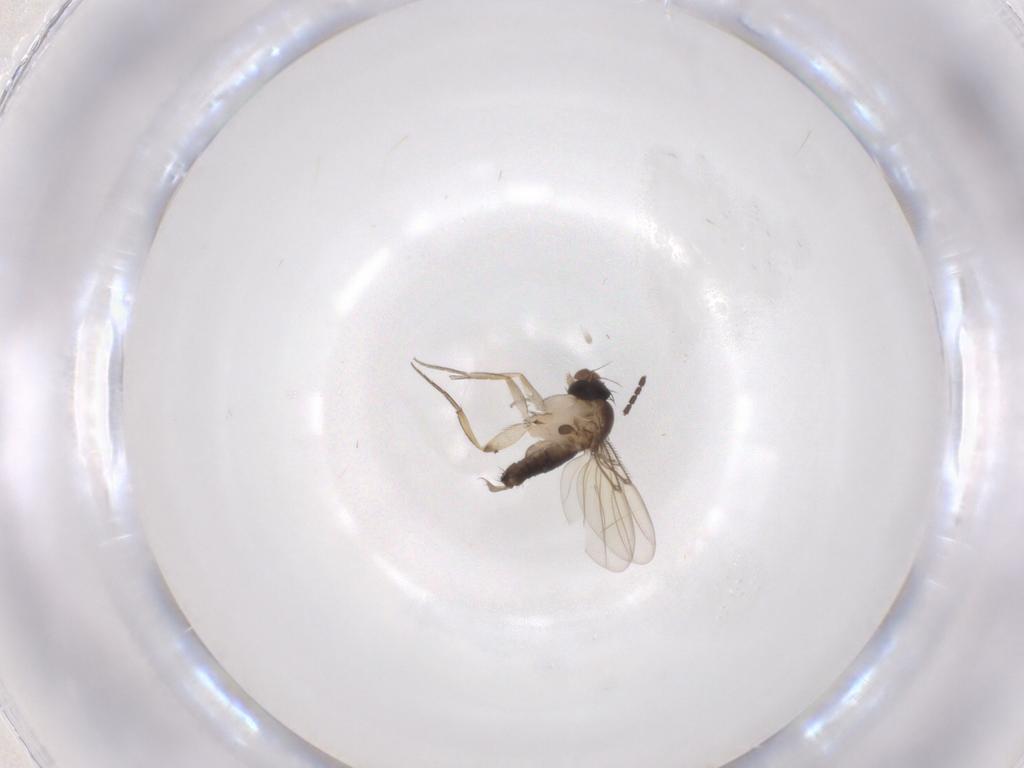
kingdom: Animalia
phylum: Arthropoda
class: Insecta
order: Diptera
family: Sciaridae
